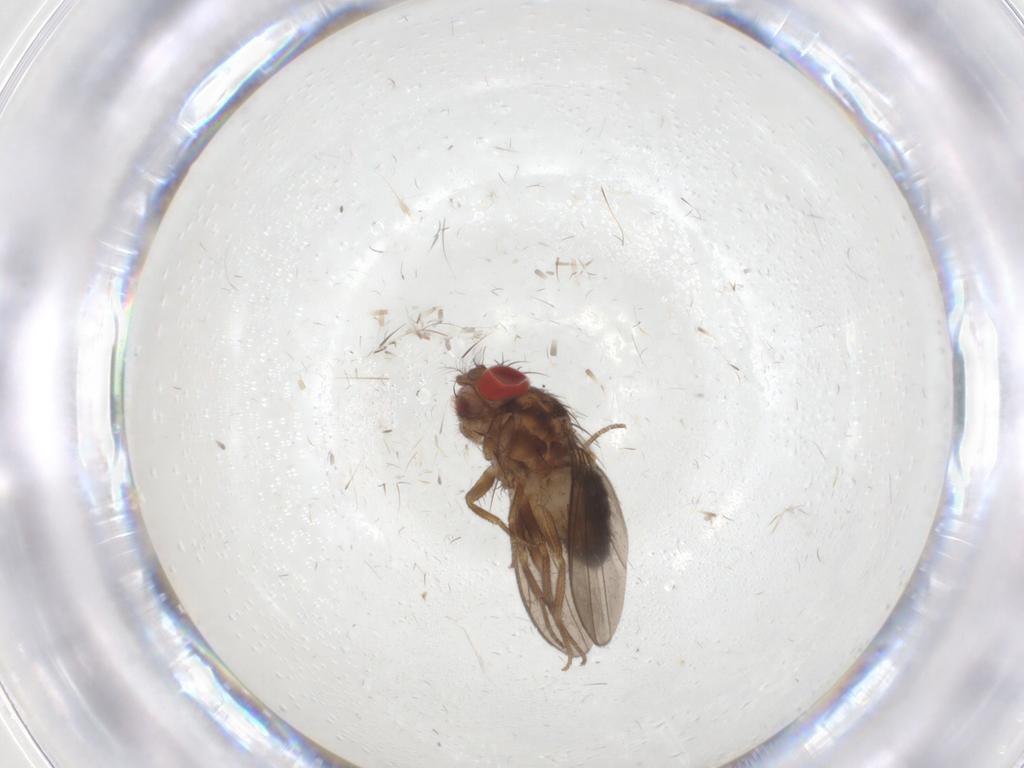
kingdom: Animalia
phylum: Arthropoda
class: Insecta
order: Diptera
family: Drosophilidae
